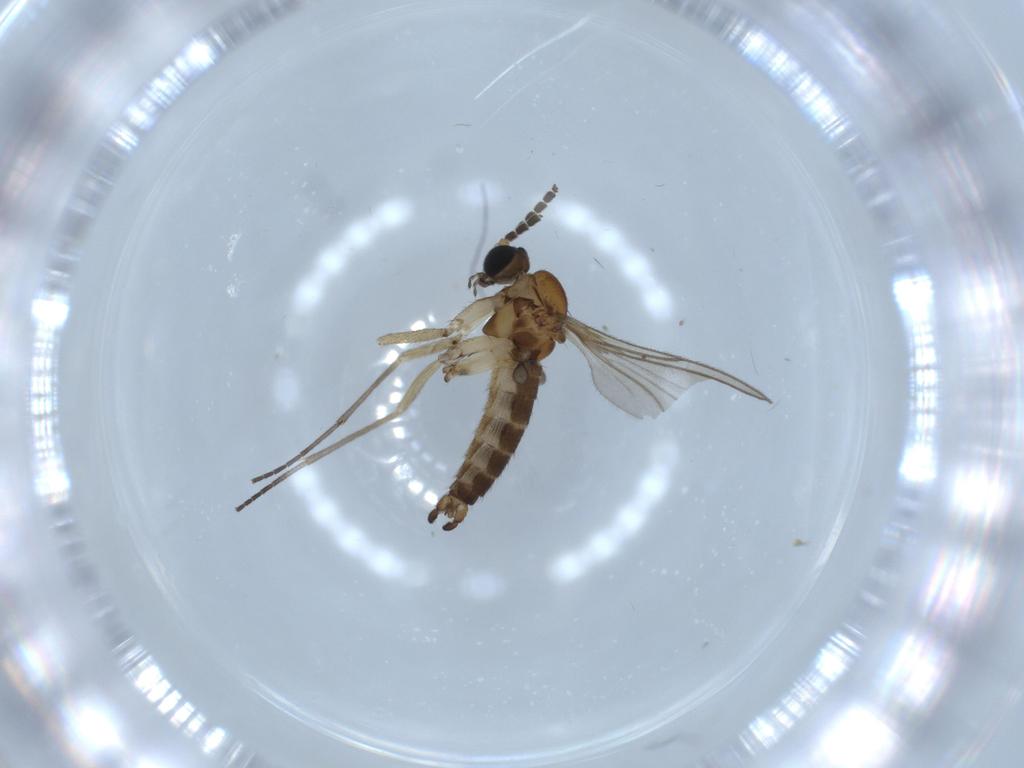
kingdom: Animalia
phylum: Arthropoda
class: Insecta
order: Diptera
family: Sciaridae
